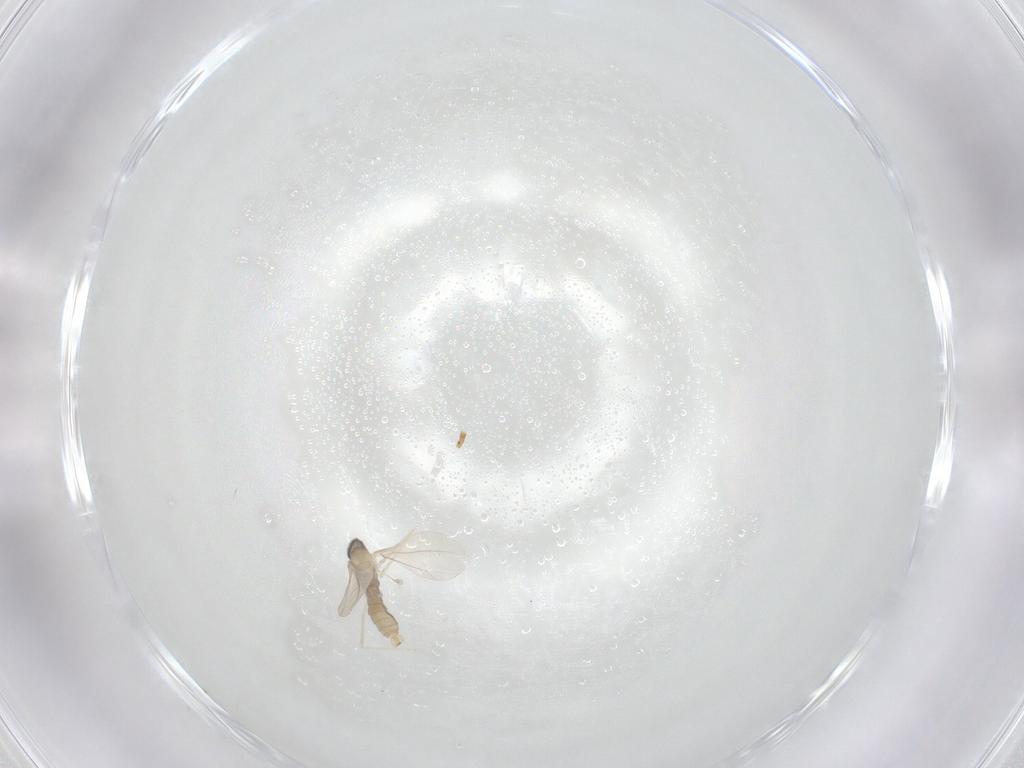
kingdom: Animalia
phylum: Arthropoda
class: Insecta
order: Diptera
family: Cecidomyiidae
